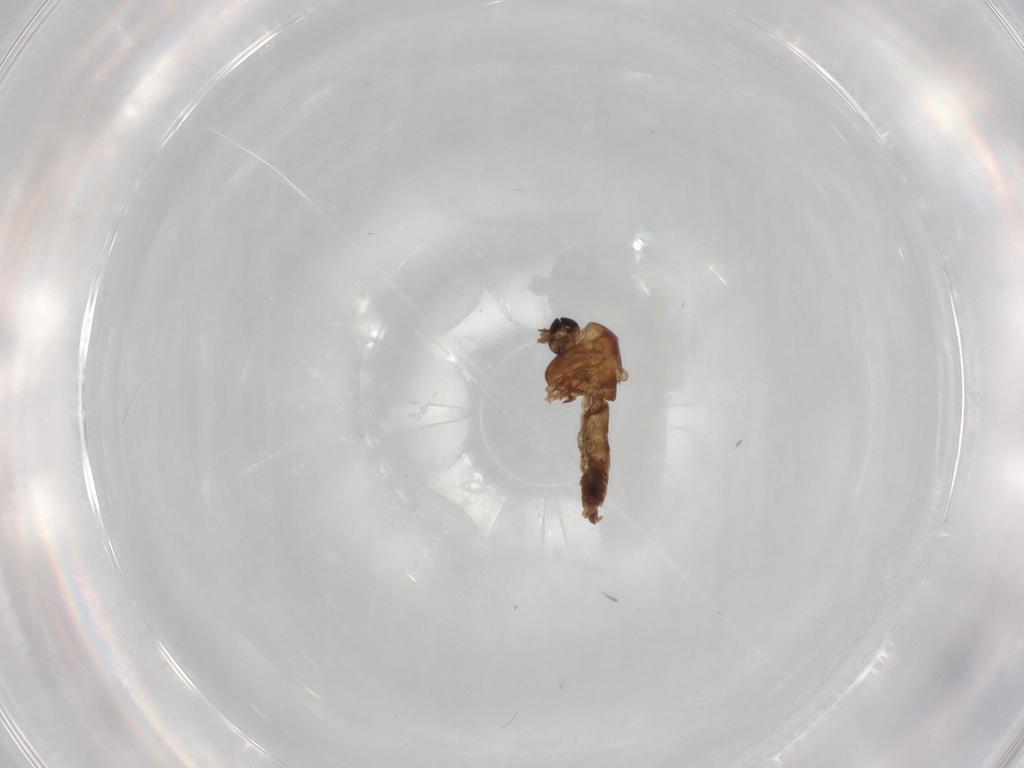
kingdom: Animalia
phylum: Arthropoda
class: Insecta
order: Diptera
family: Chironomidae
